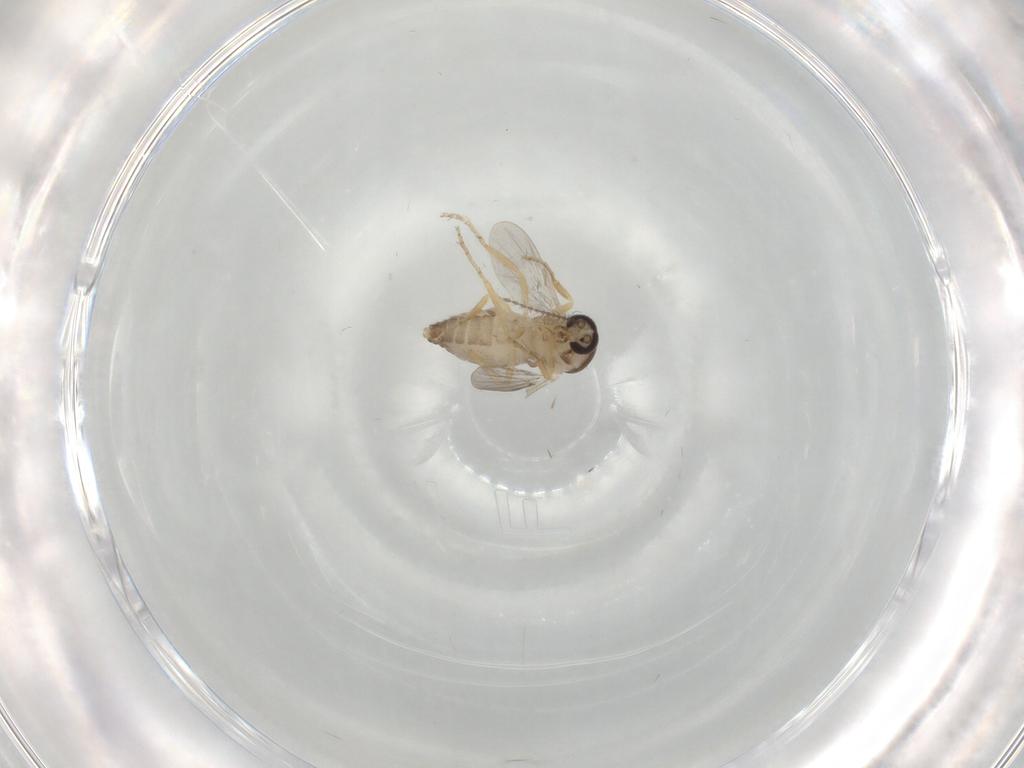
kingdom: Animalia
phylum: Arthropoda
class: Insecta
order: Diptera
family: Ceratopogonidae
